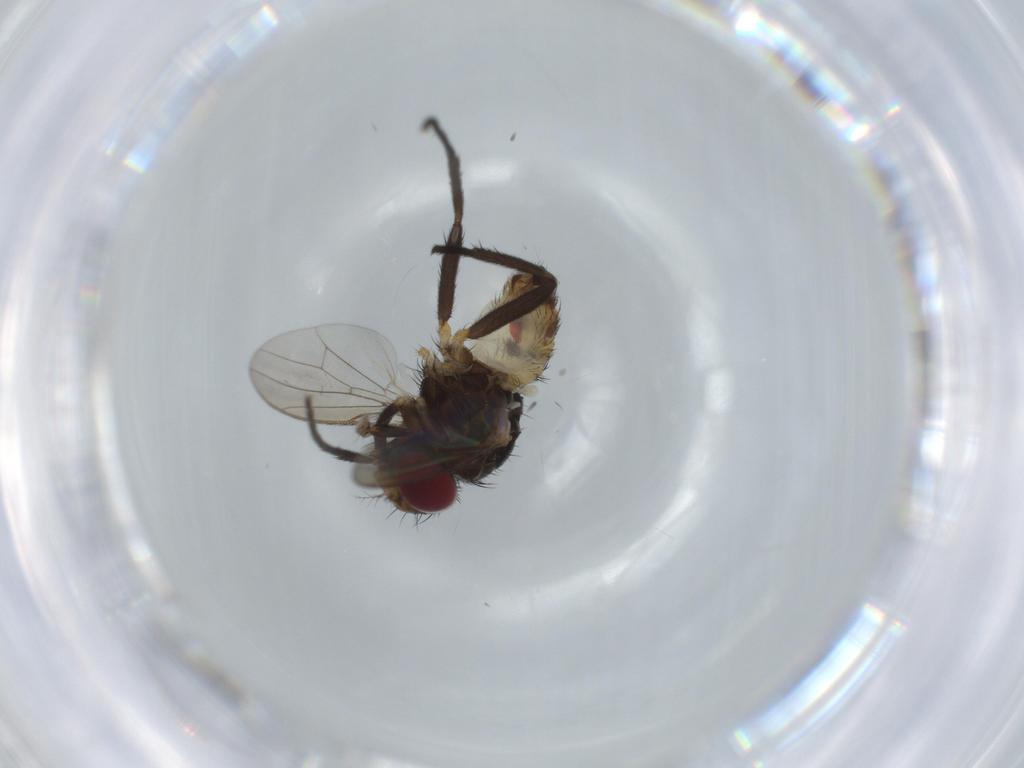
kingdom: Animalia
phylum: Arthropoda
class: Insecta
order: Diptera
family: Anthomyiidae
